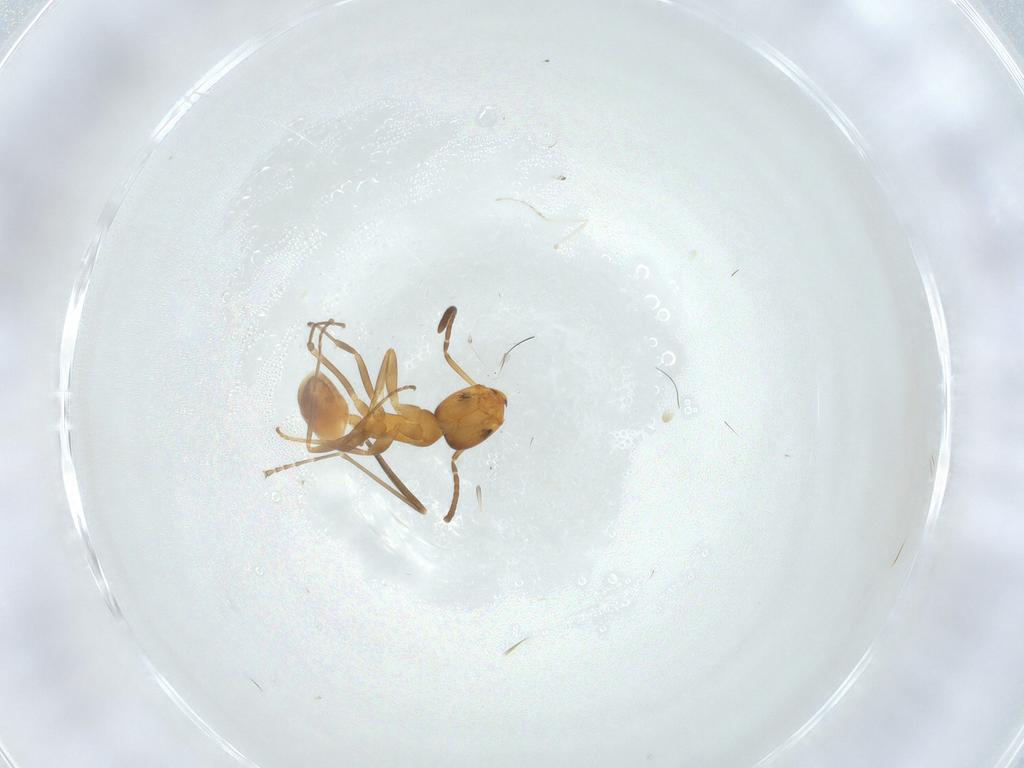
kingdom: Animalia
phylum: Arthropoda
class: Insecta
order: Hymenoptera
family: Formicidae
